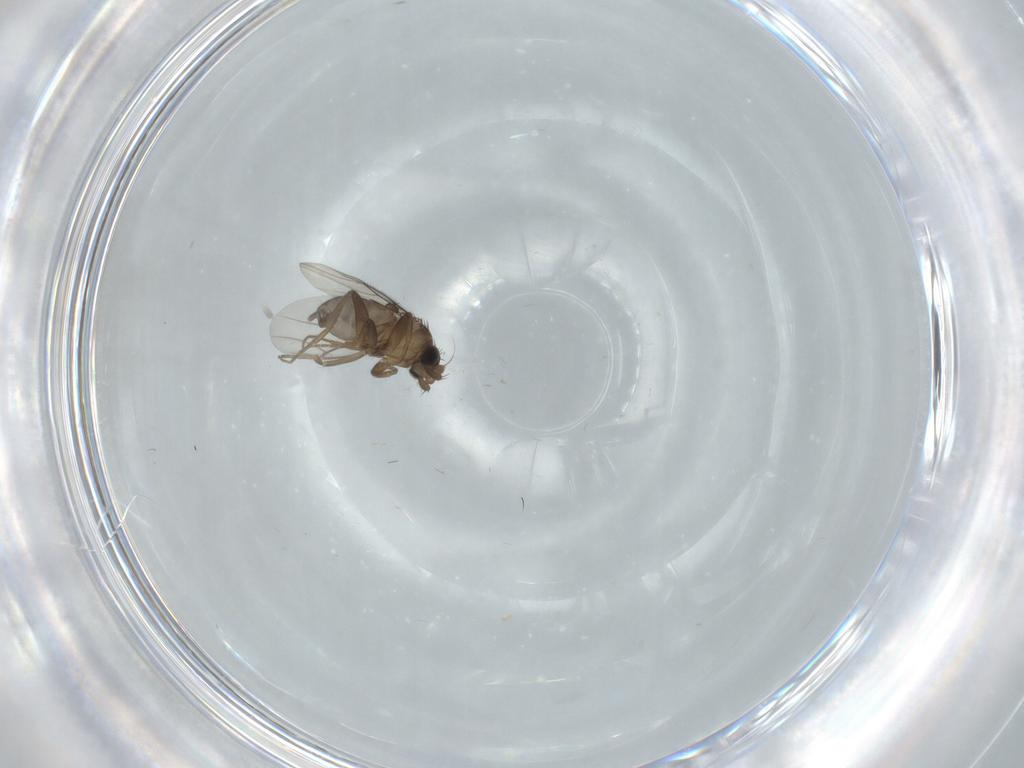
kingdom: Animalia
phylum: Arthropoda
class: Insecta
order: Diptera
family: Phoridae
